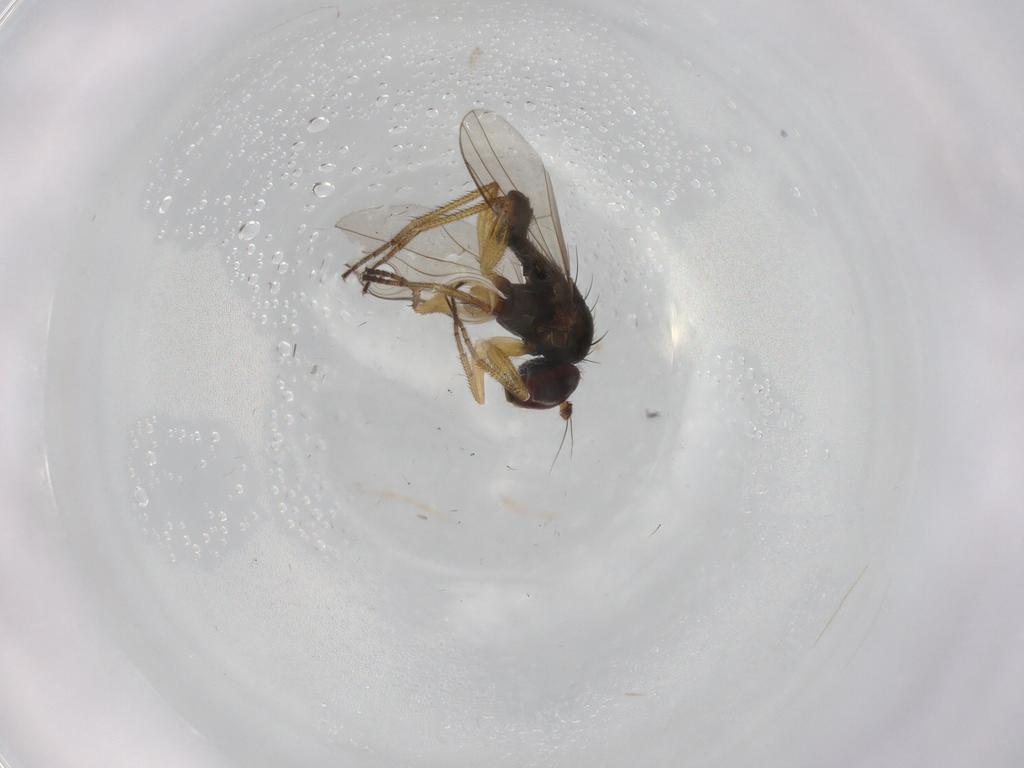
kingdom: Animalia
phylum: Arthropoda
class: Insecta
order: Diptera
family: Dolichopodidae
